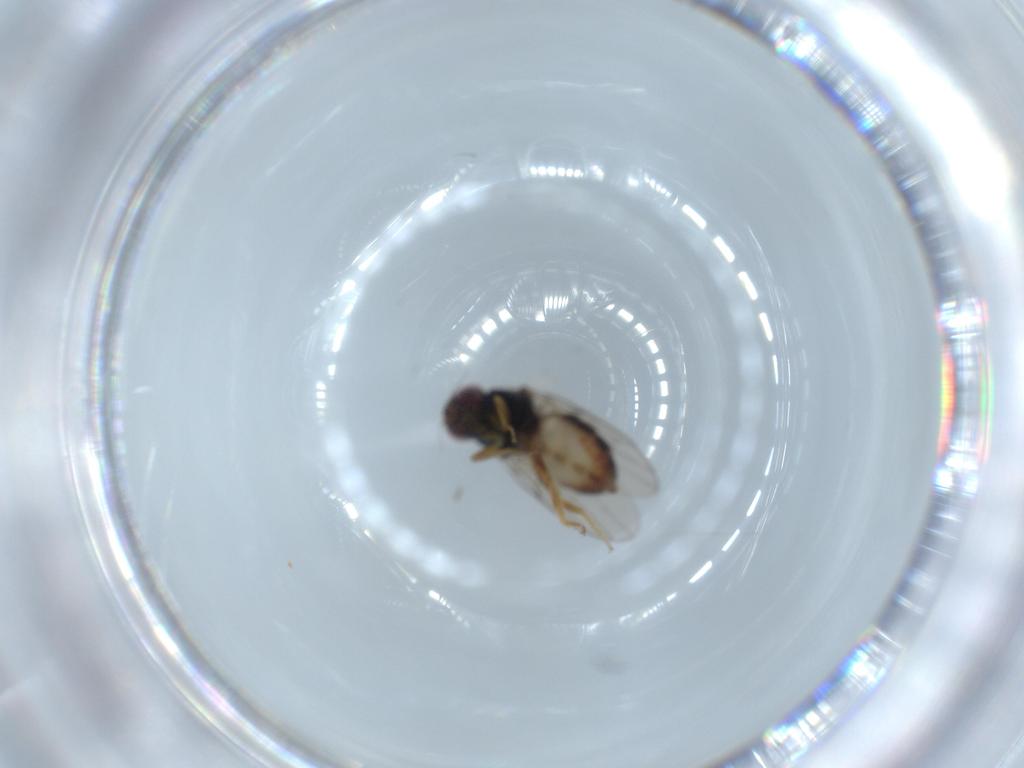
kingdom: Animalia
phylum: Arthropoda
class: Insecta
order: Diptera
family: Chloropidae
